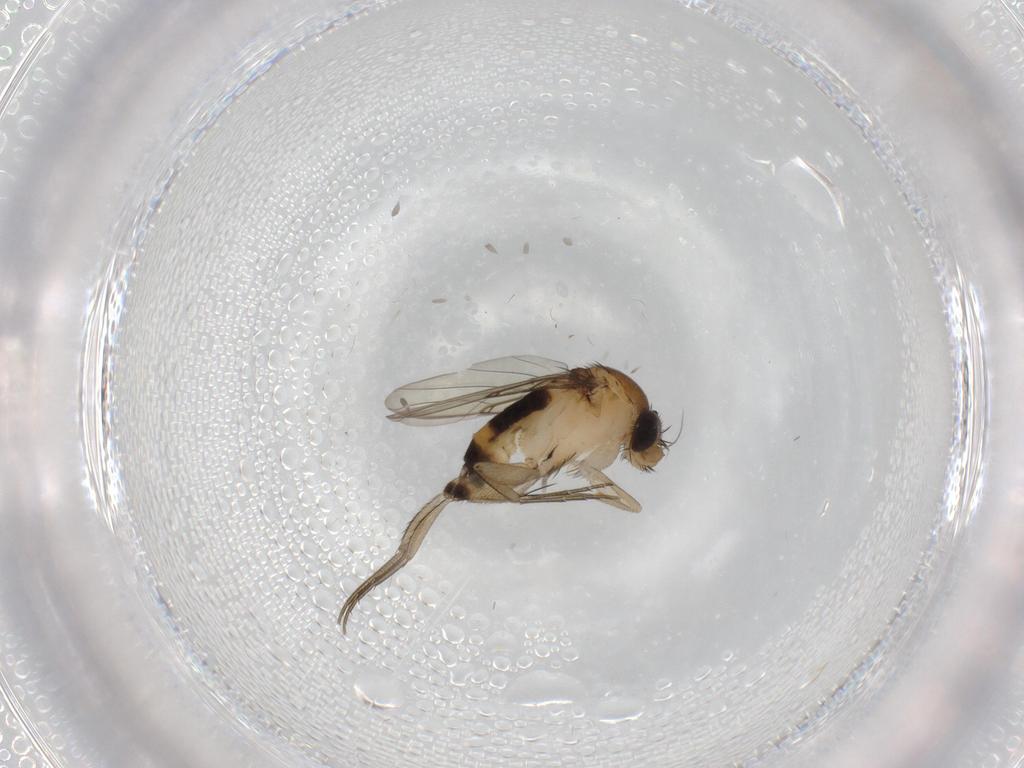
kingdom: Animalia
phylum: Arthropoda
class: Insecta
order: Diptera
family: Phoridae
